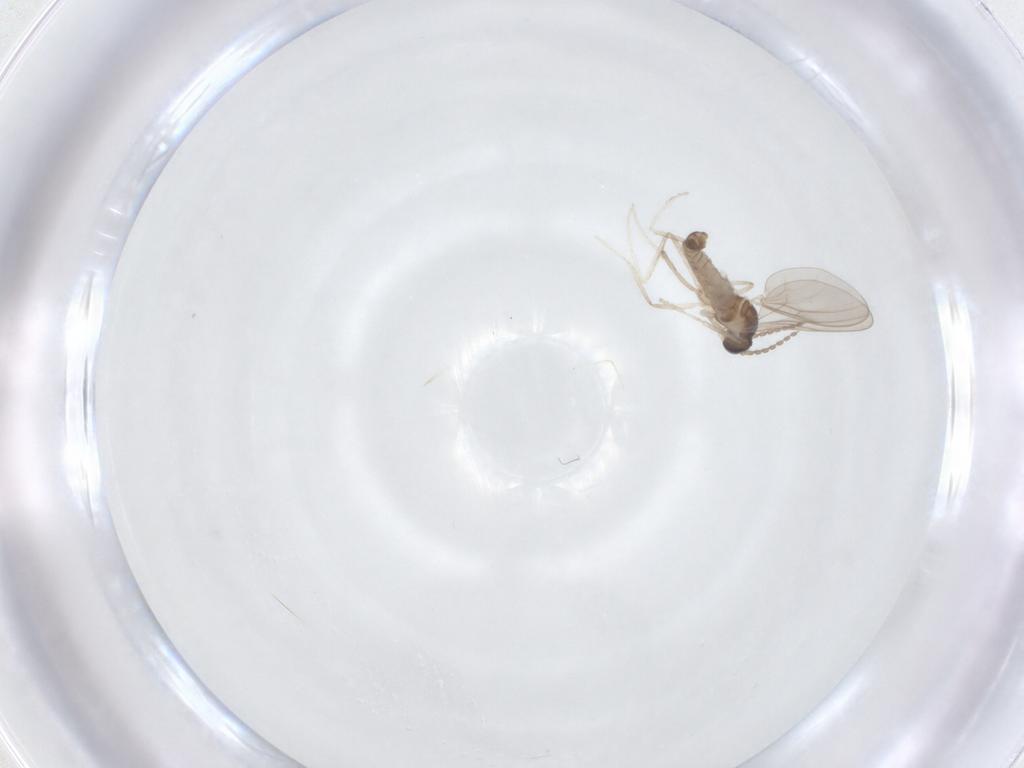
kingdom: Animalia
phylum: Arthropoda
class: Insecta
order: Diptera
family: Cecidomyiidae
